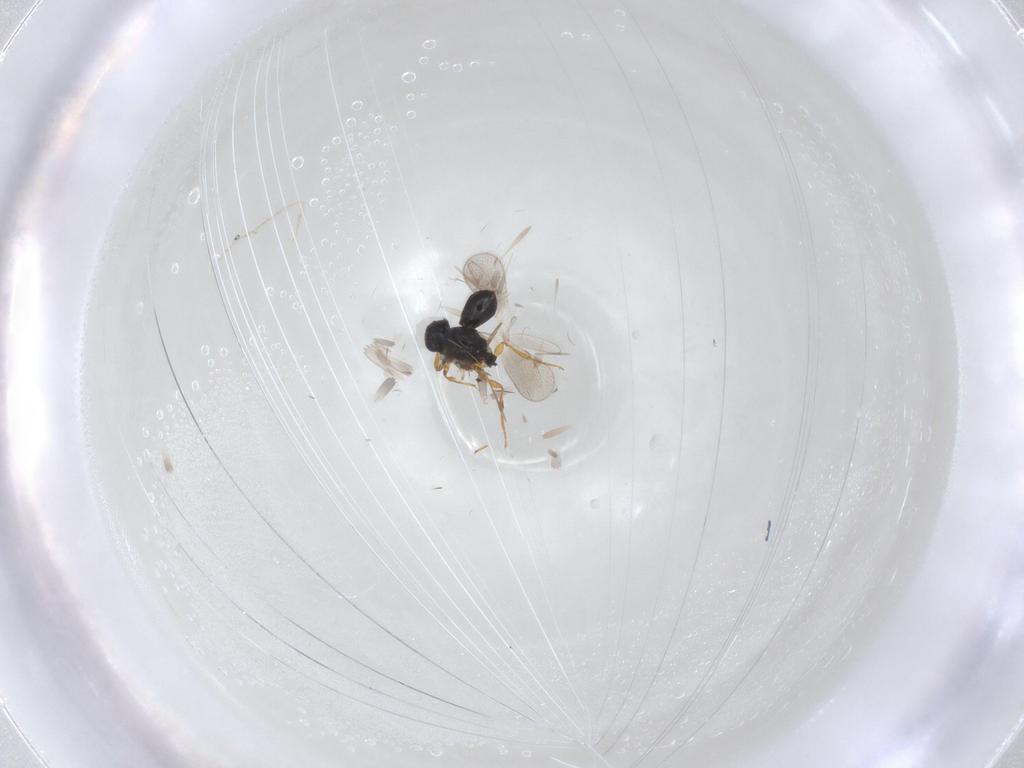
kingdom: Animalia
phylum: Arthropoda
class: Insecta
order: Hymenoptera
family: Platygastridae
